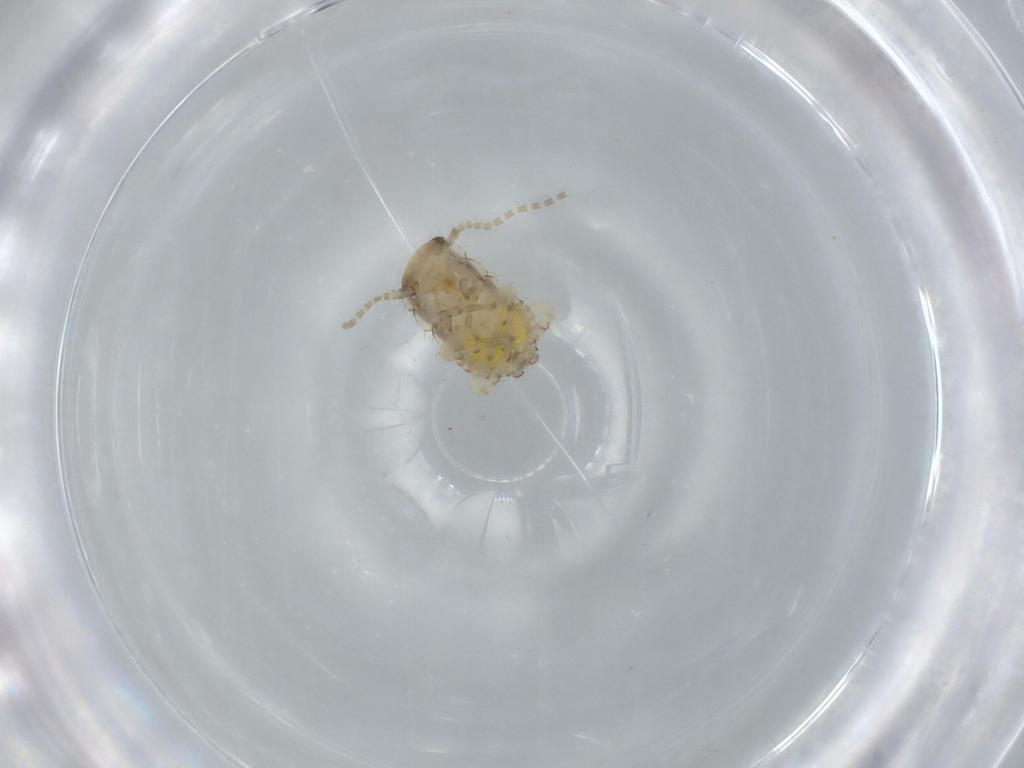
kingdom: Animalia
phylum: Arthropoda
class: Insecta
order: Blattodea
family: Ectobiidae
